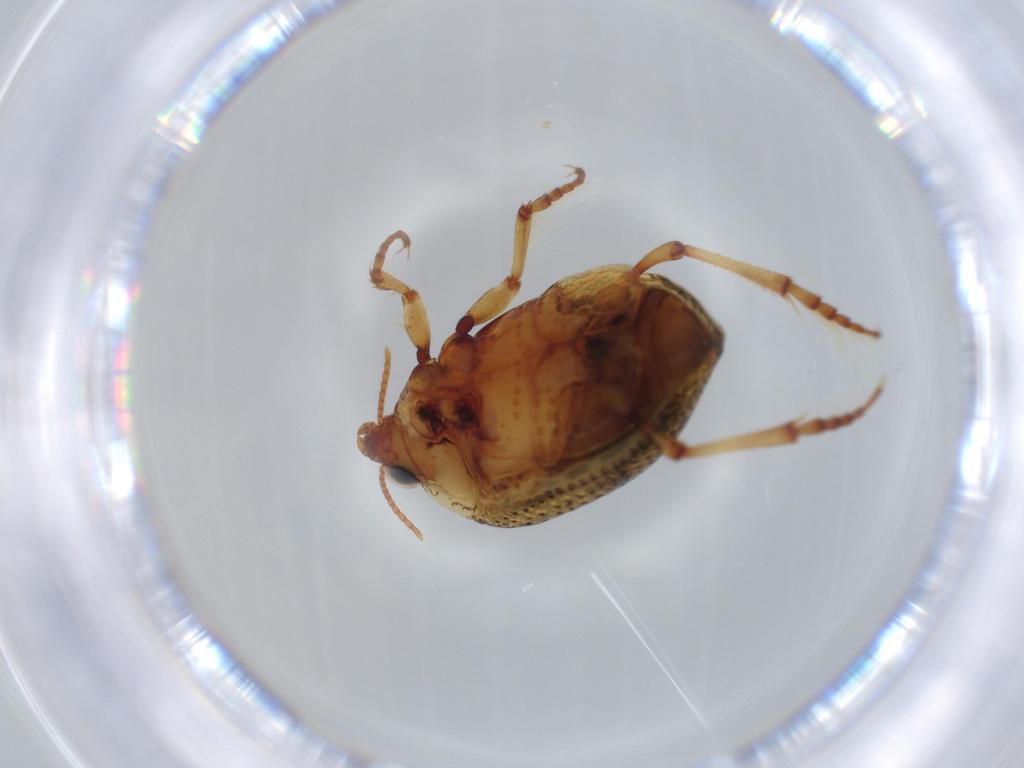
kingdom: Animalia
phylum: Arthropoda
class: Insecta
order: Coleoptera
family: Haliplidae
